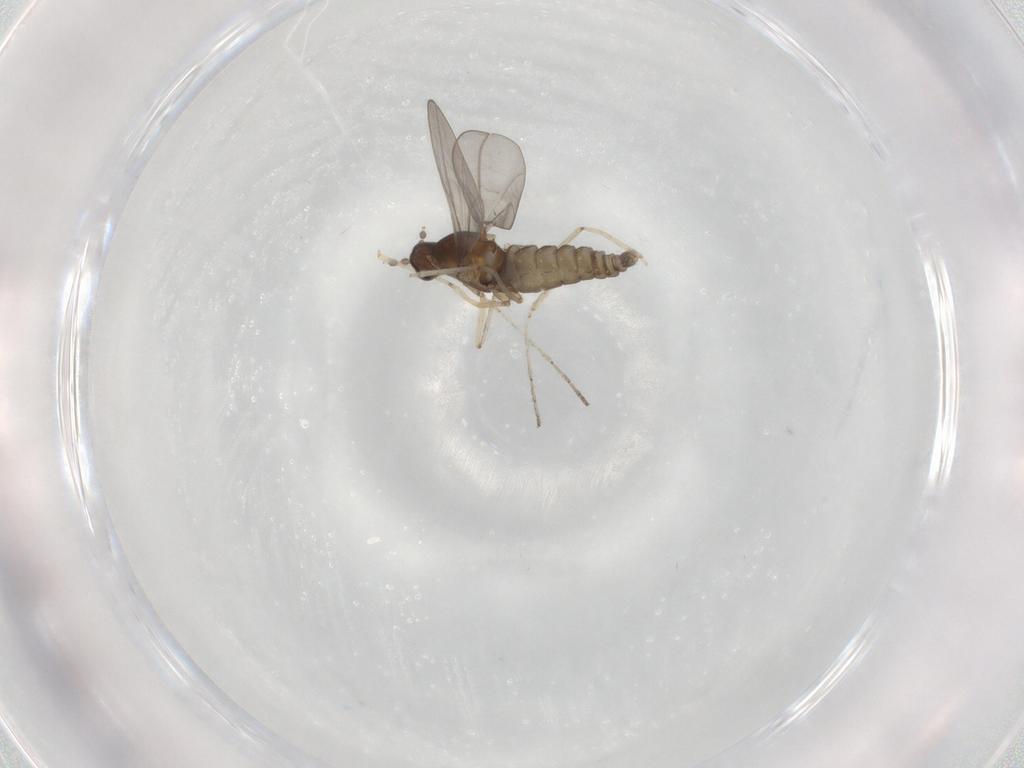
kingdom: Animalia
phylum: Arthropoda
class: Insecta
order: Diptera
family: Cecidomyiidae
